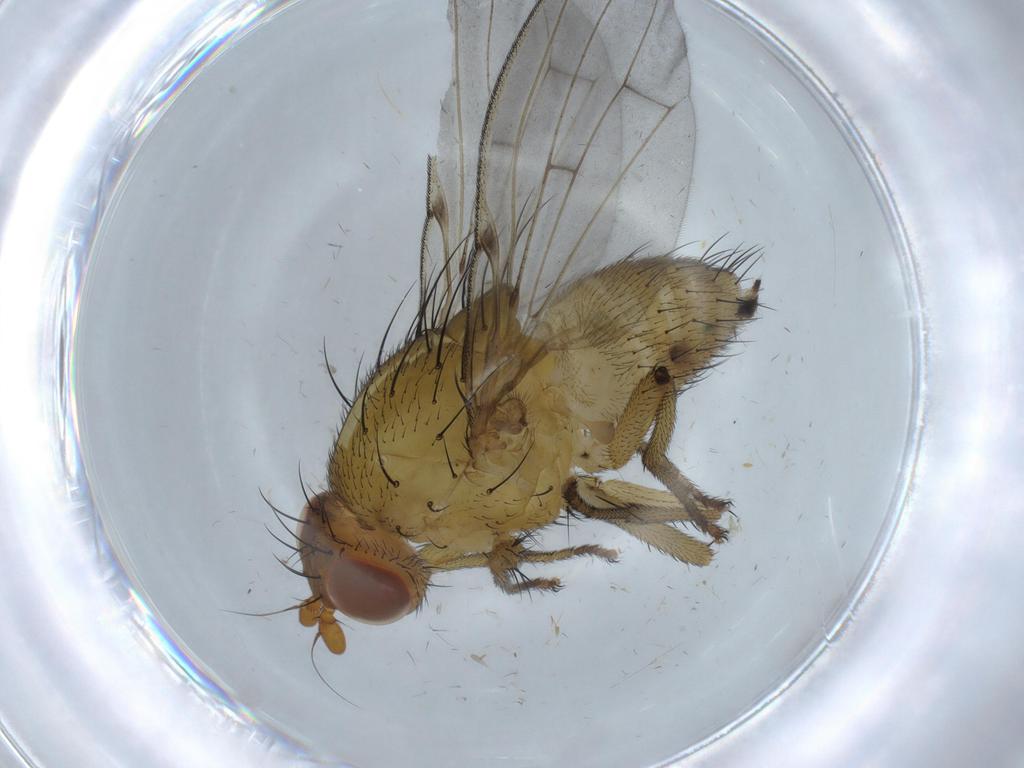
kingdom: Animalia
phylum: Arthropoda
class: Insecta
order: Diptera
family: Cecidomyiidae
